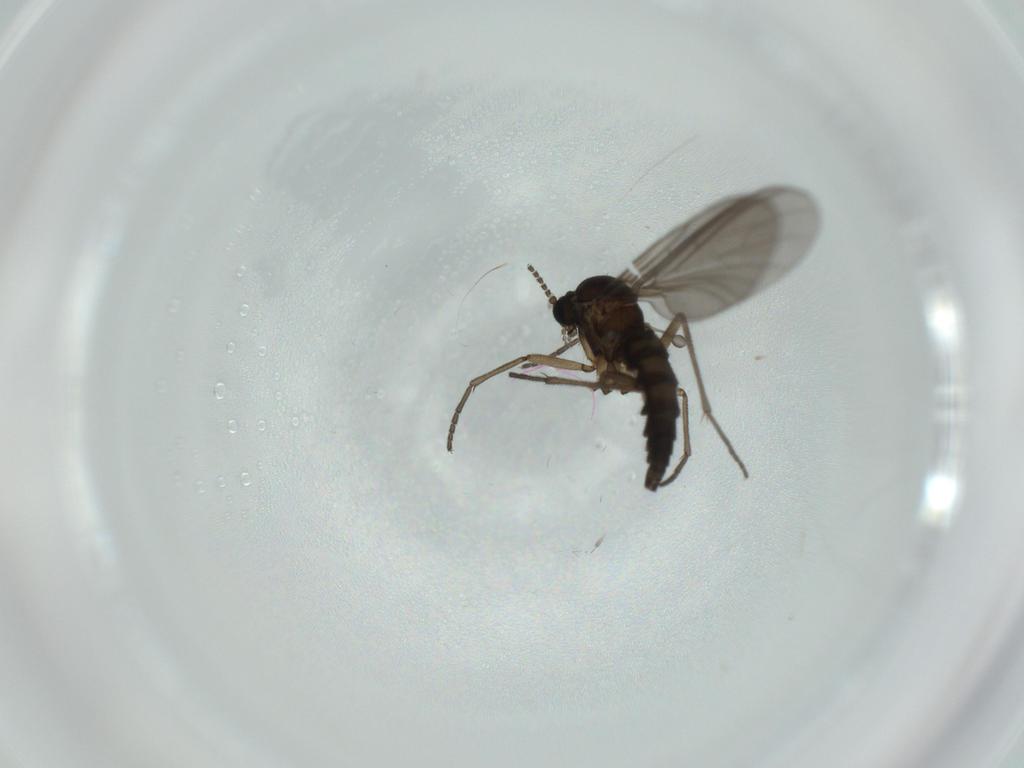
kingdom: Animalia
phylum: Arthropoda
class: Insecta
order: Diptera
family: Sciaridae
